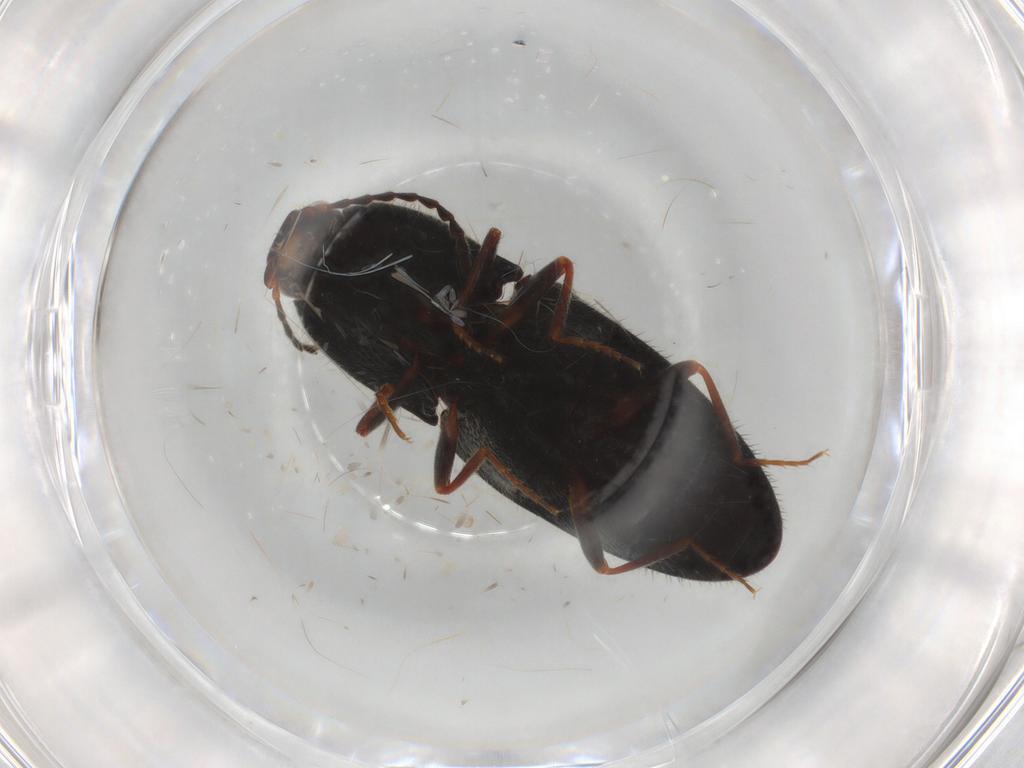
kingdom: Animalia
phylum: Arthropoda
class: Insecta
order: Coleoptera
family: Elateridae
